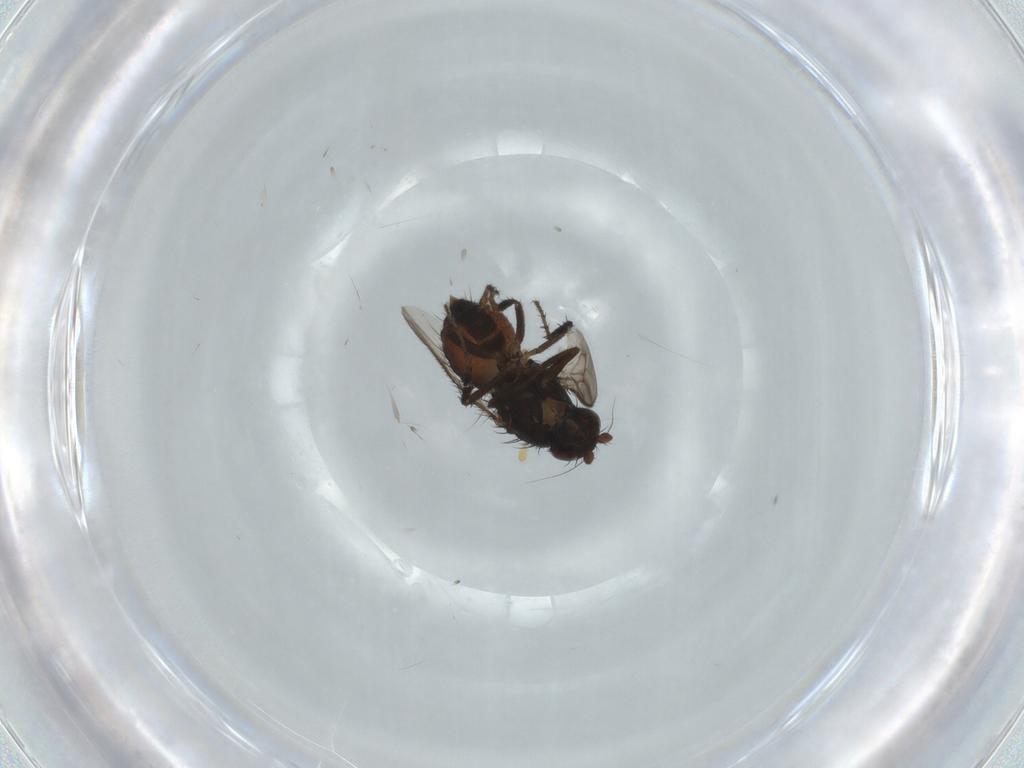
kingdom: Animalia
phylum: Arthropoda
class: Insecta
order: Diptera
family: Sphaeroceridae
